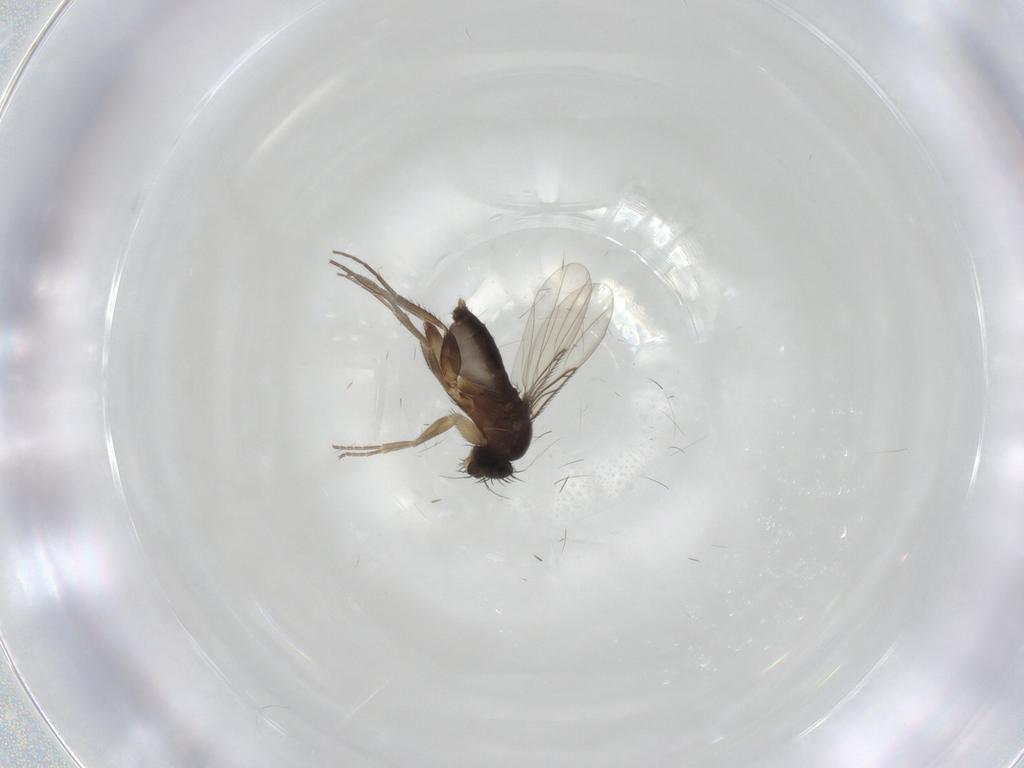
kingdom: Animalia
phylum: Arthropoda
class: Insecta
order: Diptera
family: Phoridae
